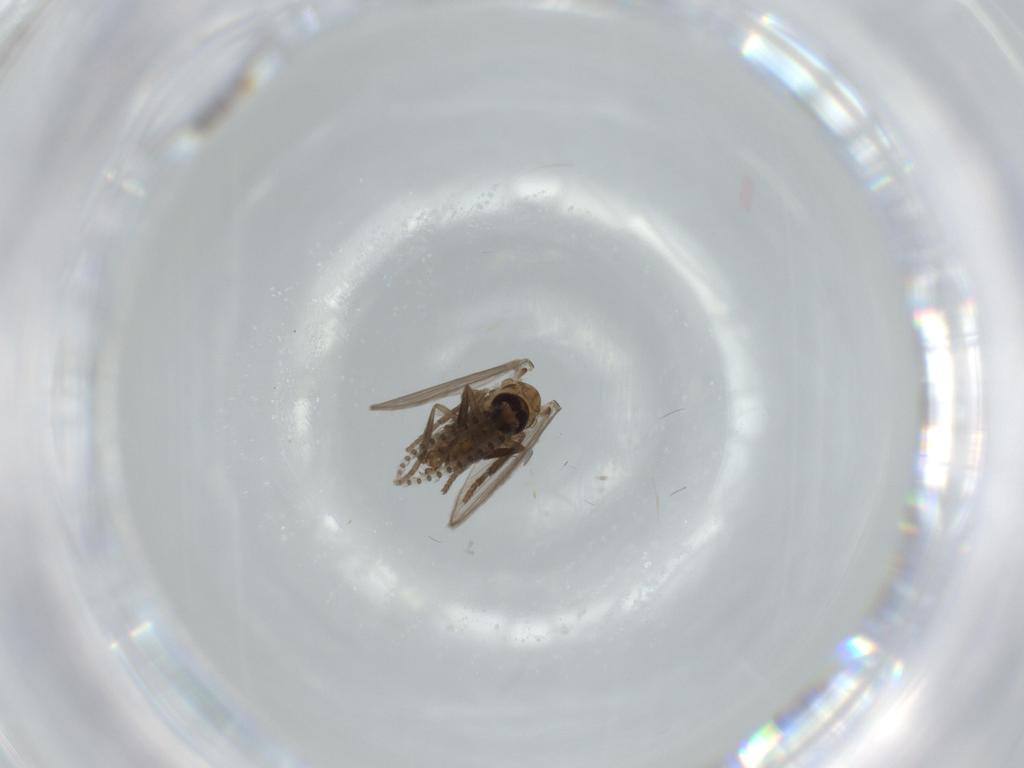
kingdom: Animalia
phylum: Arthropoda
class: Insecta
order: Diptera
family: Psychodidae
